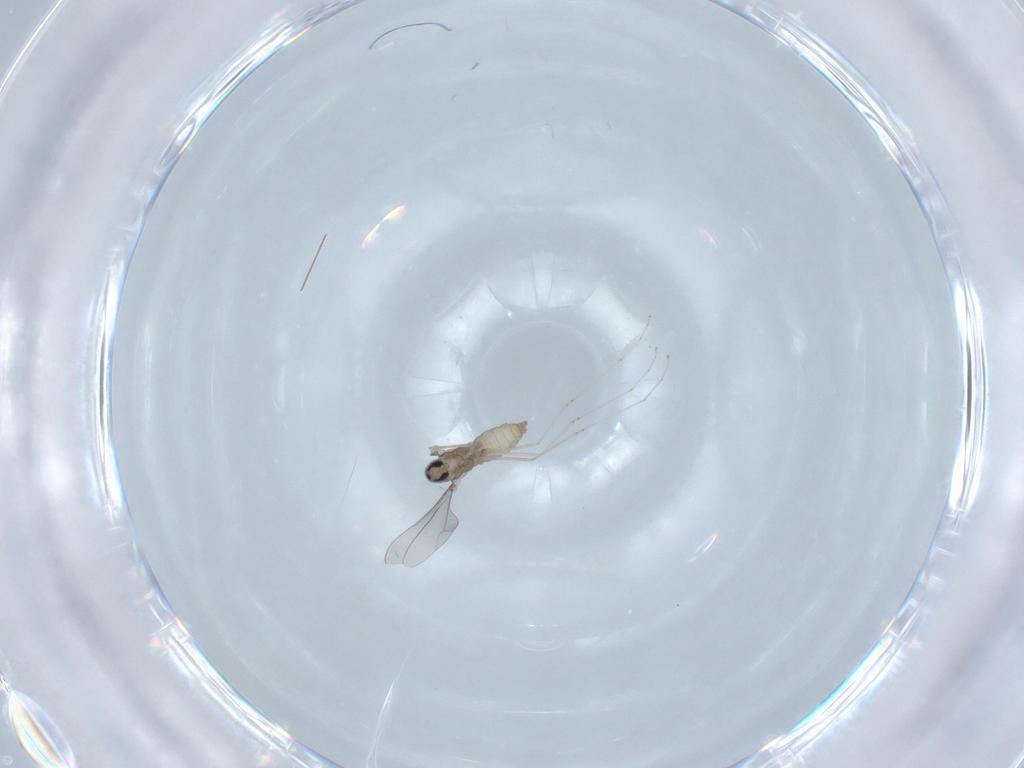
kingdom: Animalia
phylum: Arthropoda
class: Insecta
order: Diptera
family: Cecidomyiidae
